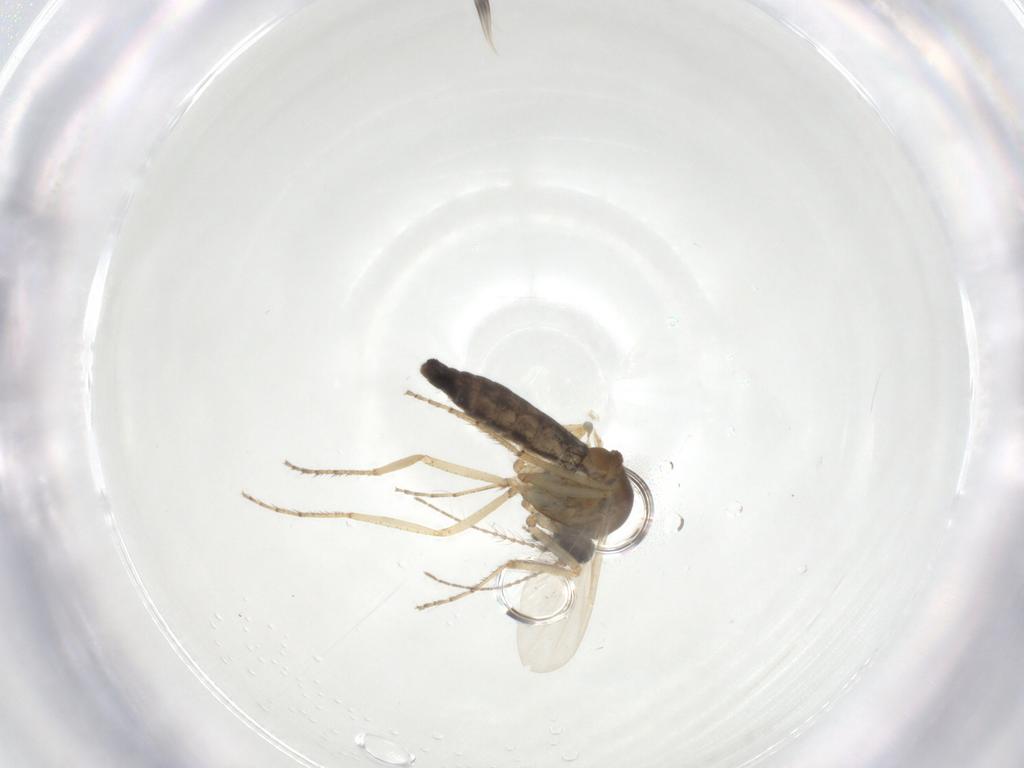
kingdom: Animalia
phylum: Arthropoda
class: Insecta
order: Diptera
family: Ceratopogonidae
